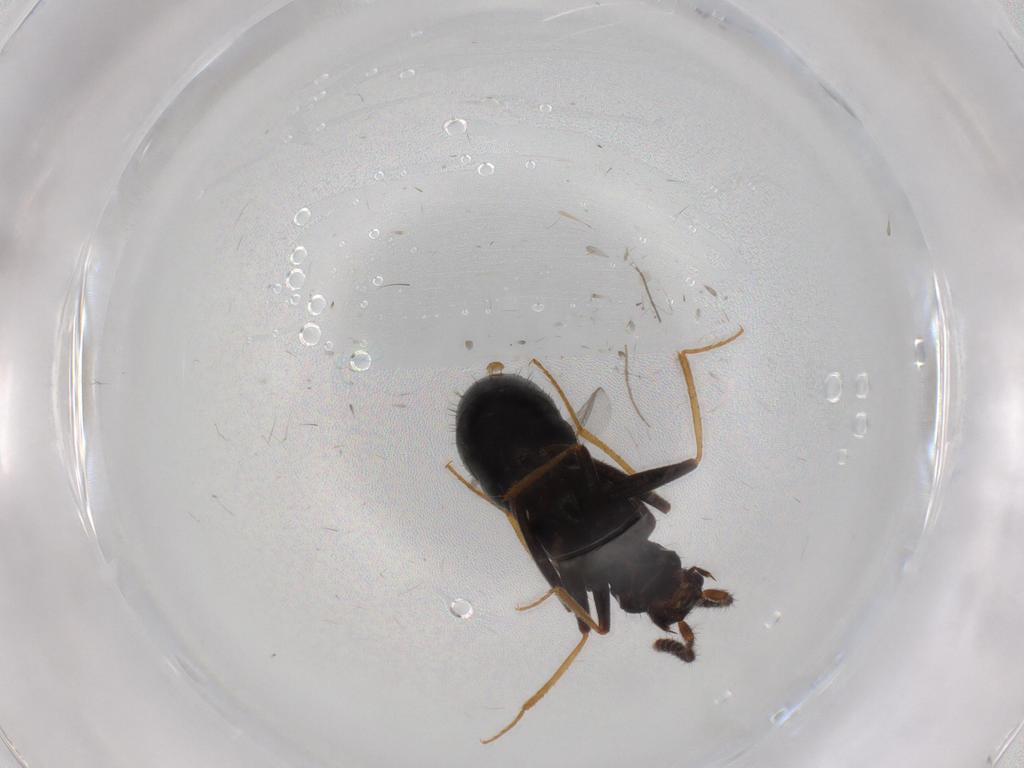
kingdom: Animalia
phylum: Arthropoda
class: Insecta
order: Coleoptera
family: Staphylinidae
